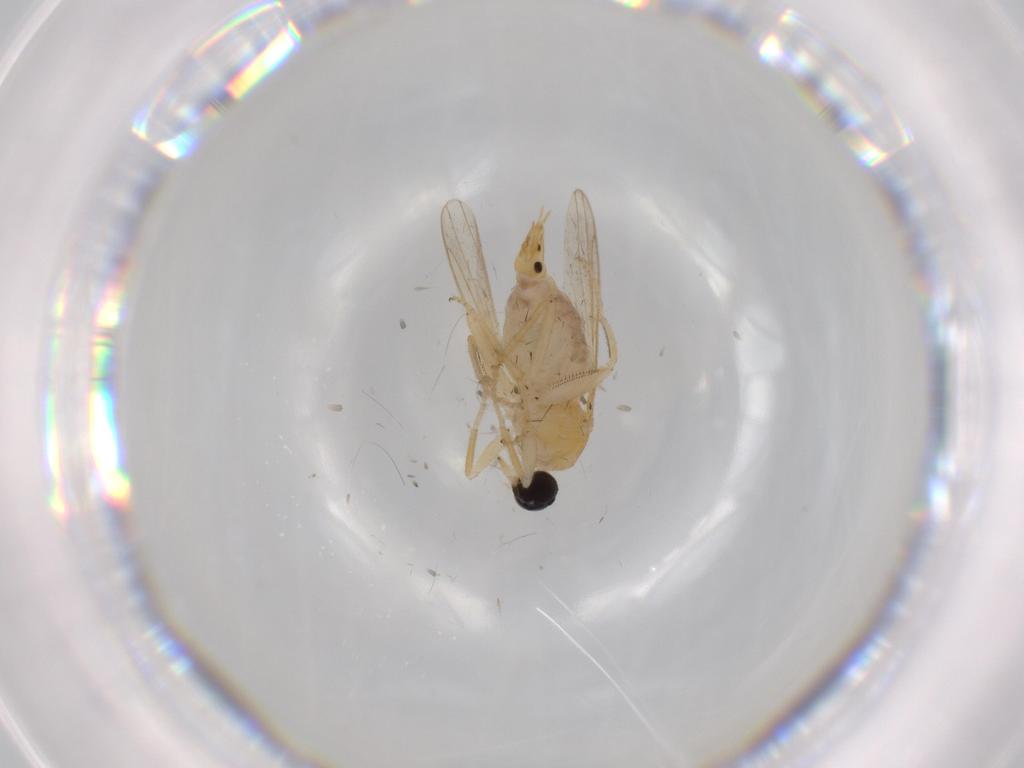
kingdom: Animalia
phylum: Arthropoda
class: Insecta
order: Diptera
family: Hybotidae
